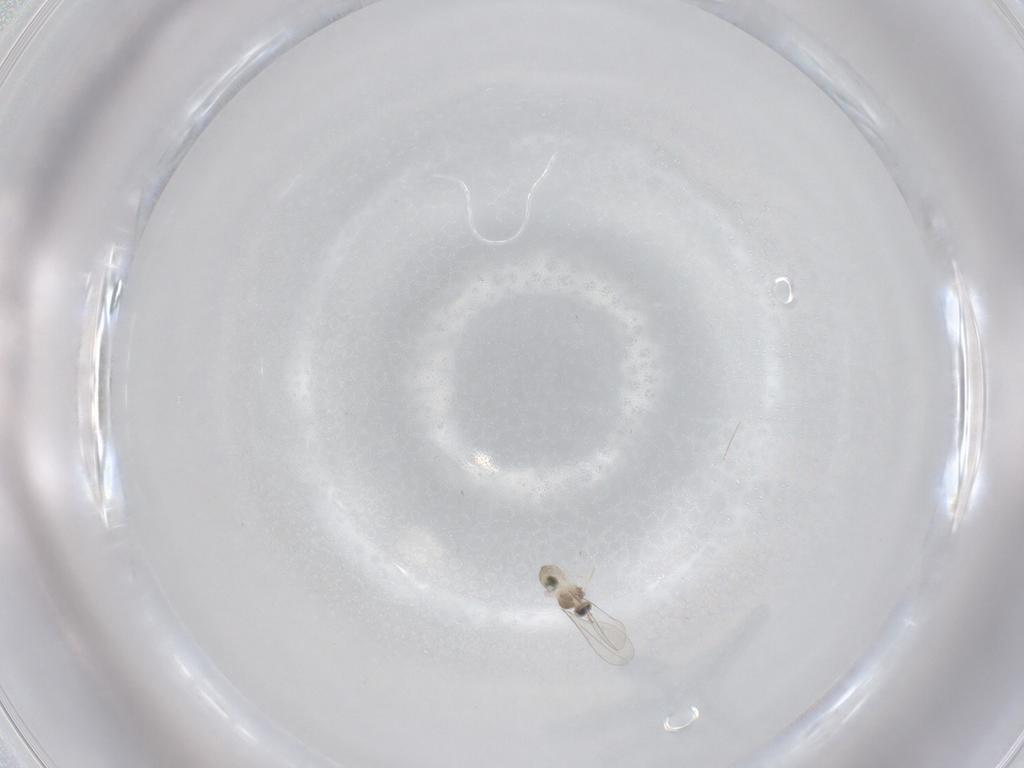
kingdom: Animalia
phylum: Arthropoda
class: Insecta
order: Diptera
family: Cecidomyiidae
